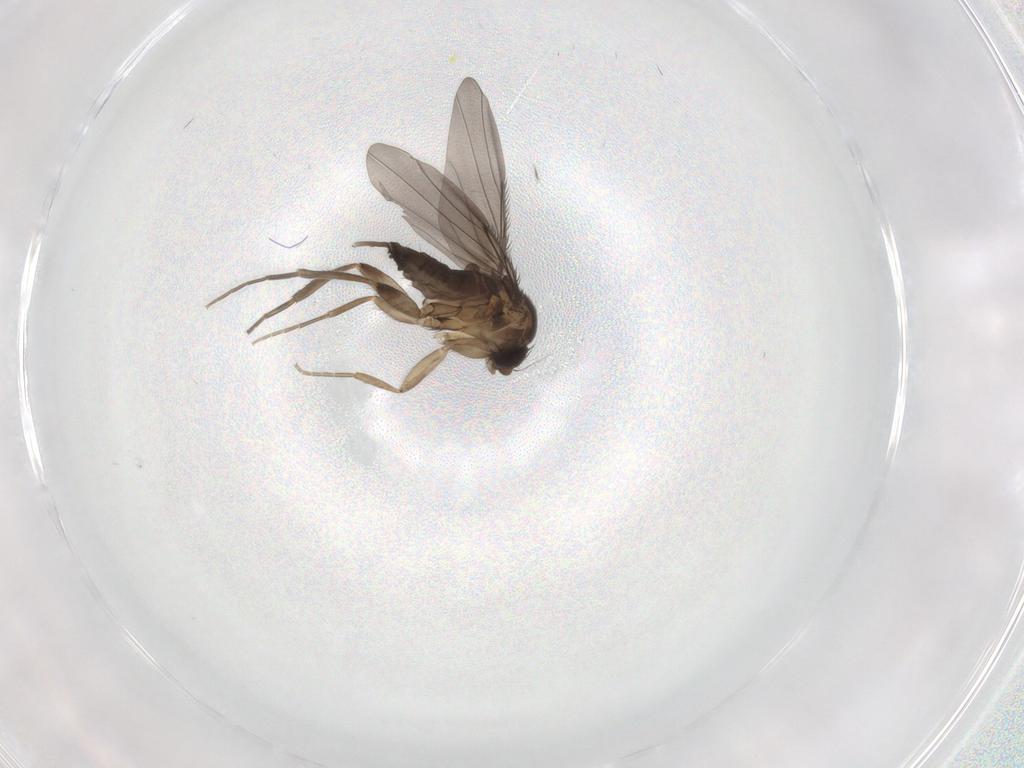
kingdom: Animalia
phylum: Arthropoda
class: Insecta
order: Diptera
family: Phoridae
